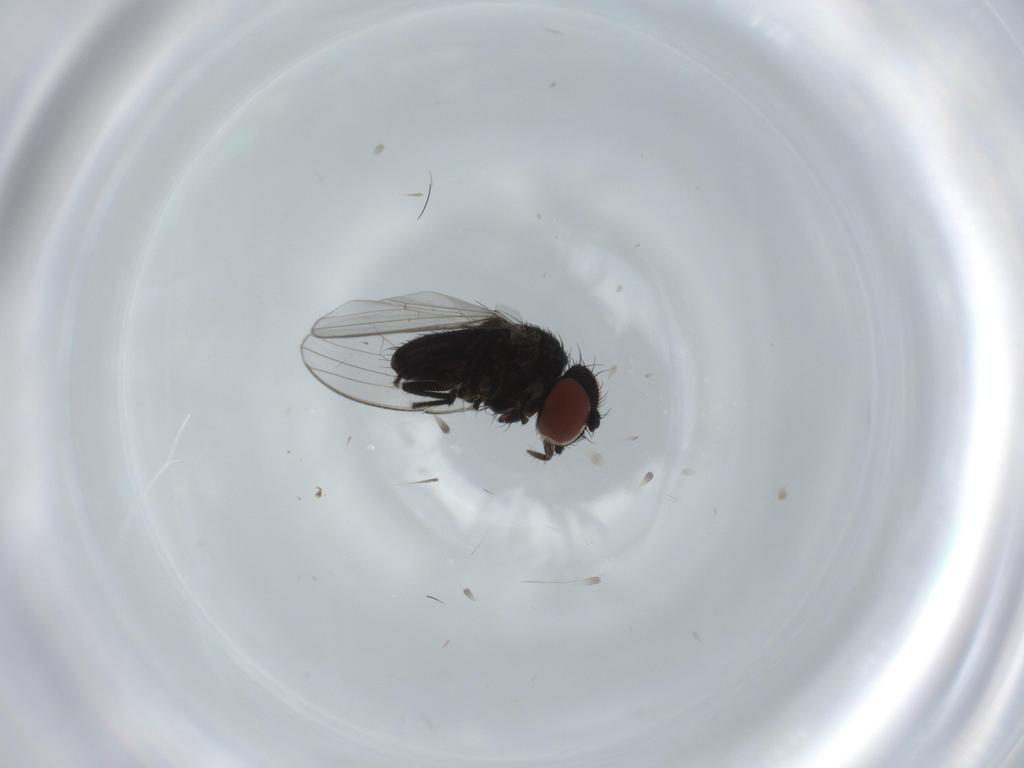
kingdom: Animalia
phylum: Arthropoda
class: Insecta
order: Diptera
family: Milichiidae
